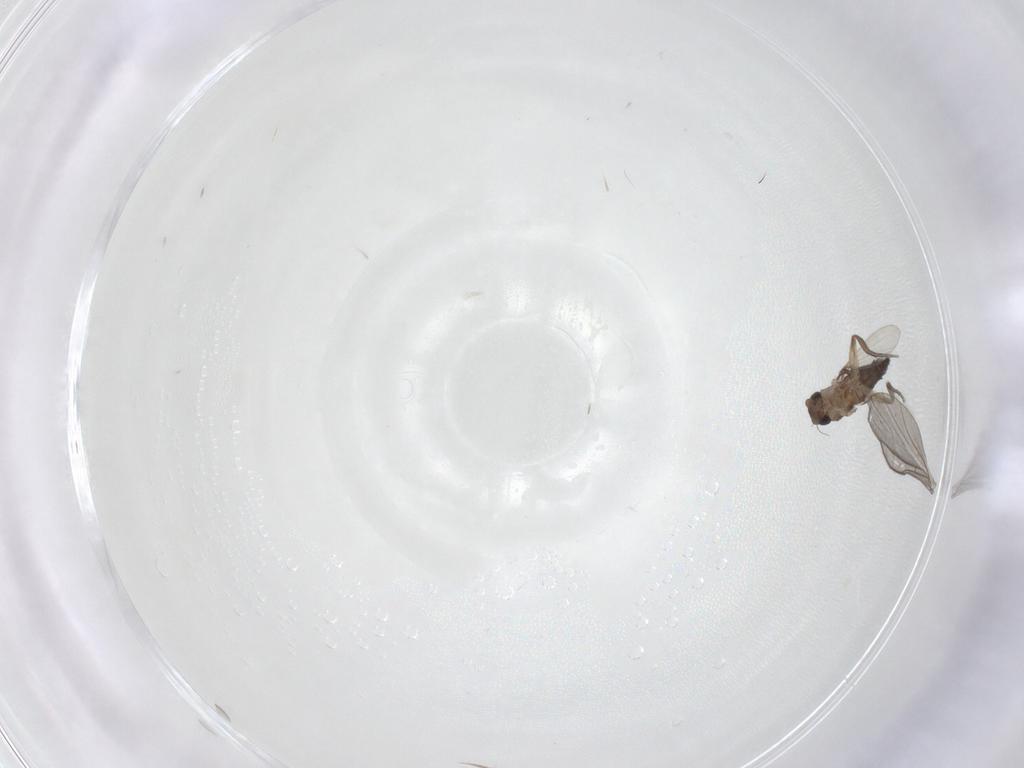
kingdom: Animalia
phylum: Arthropoda
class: Insecta
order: Diptera
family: Phoridae
